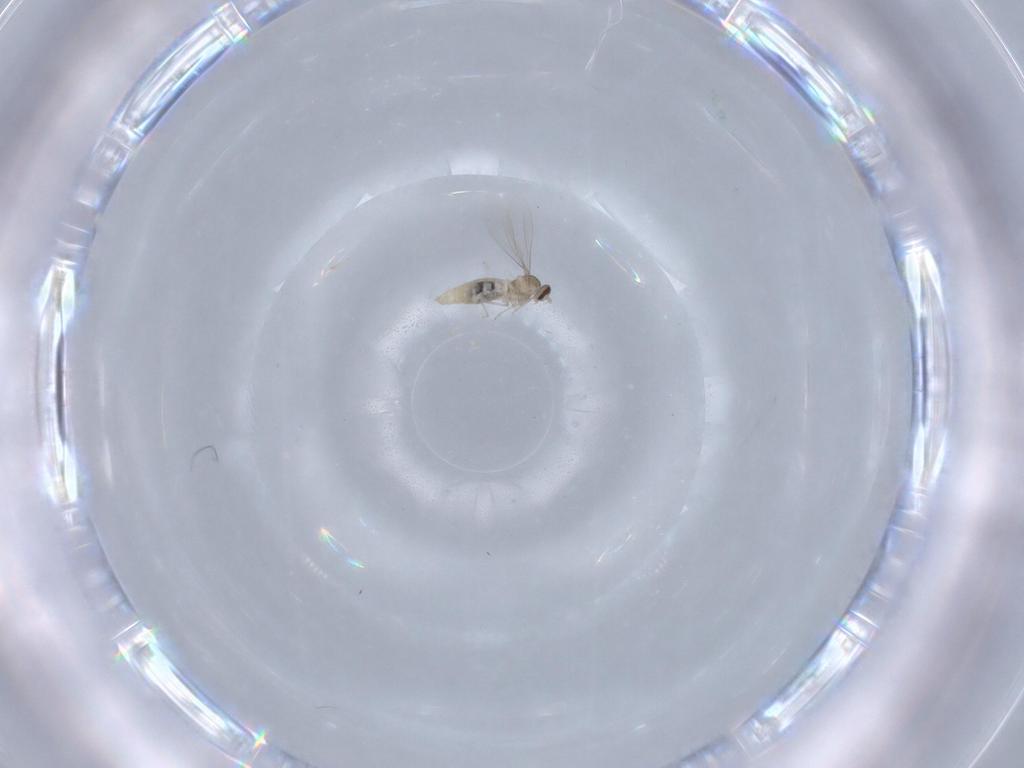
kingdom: Animalia
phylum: Arthropoda
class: Insecta
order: Diptera
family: Cecidomyiidae
